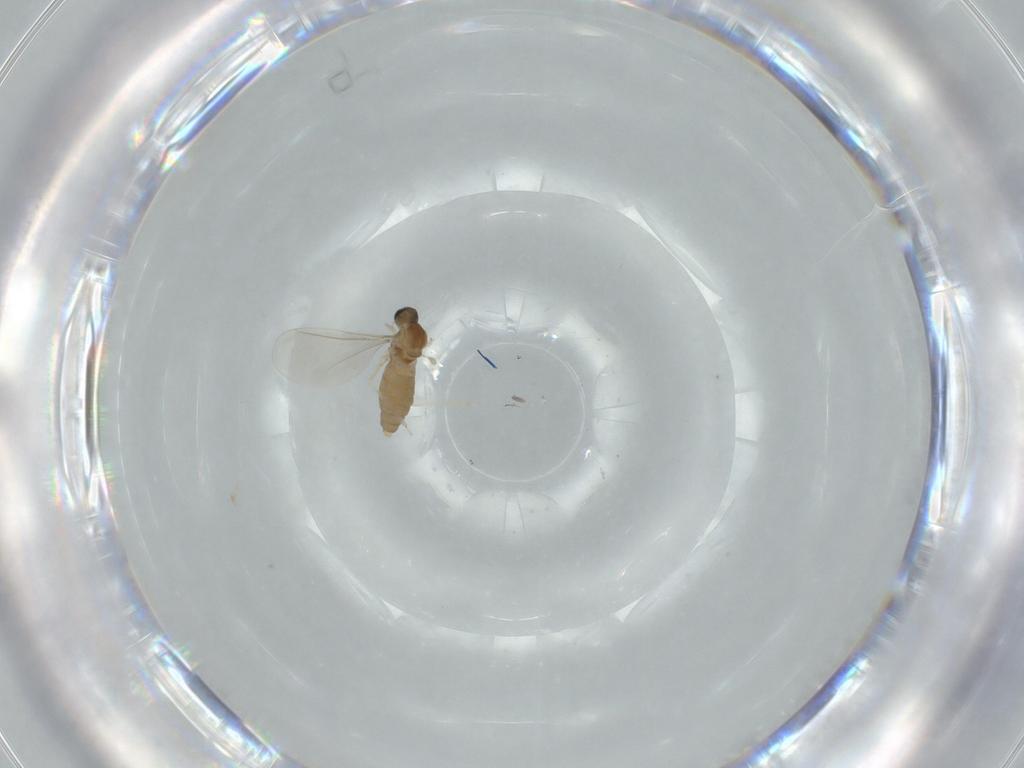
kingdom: Animalia
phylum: Arthropoda
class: Insecta
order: Diptera
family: Cecidomyiidae
